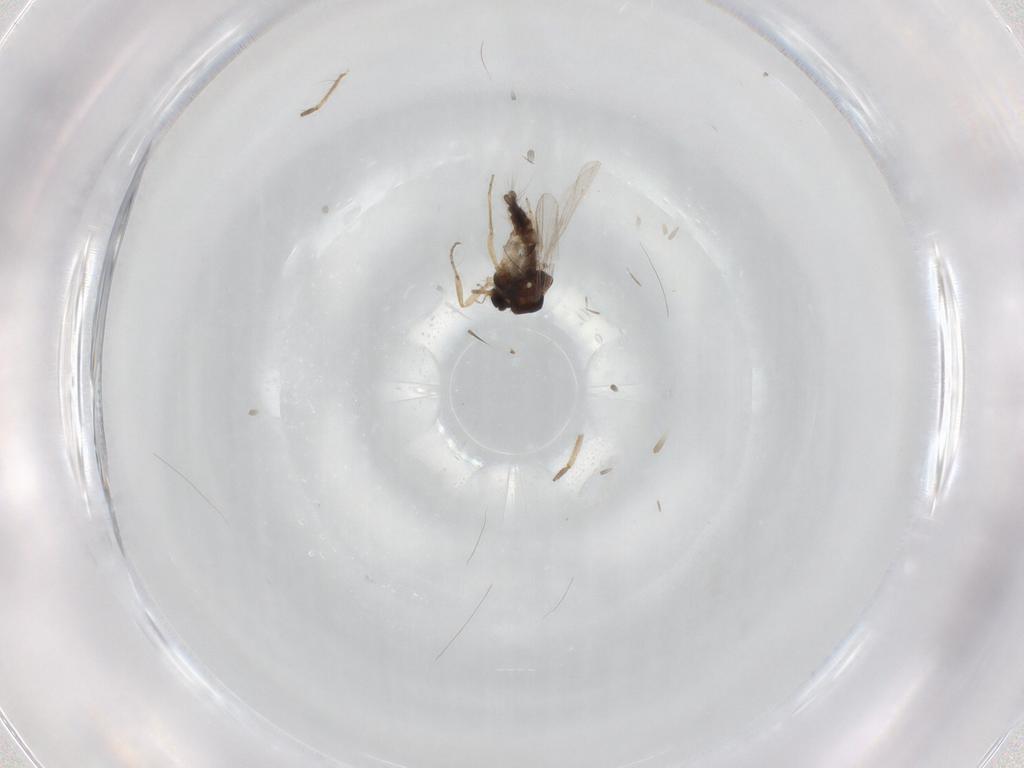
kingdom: Animalia
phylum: Arthropoda
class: Insecta
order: Diptera
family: Ceratopogonidae
